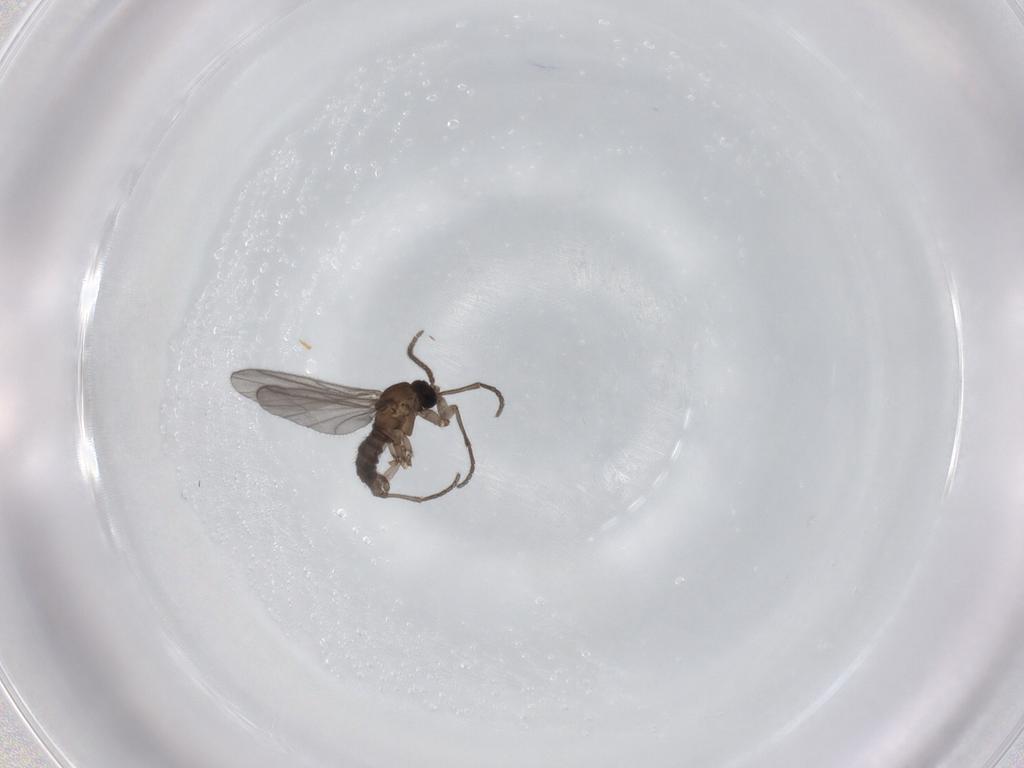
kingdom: Animalia
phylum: Arthropoda
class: Insecta
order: Diptera
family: Sciaridae
